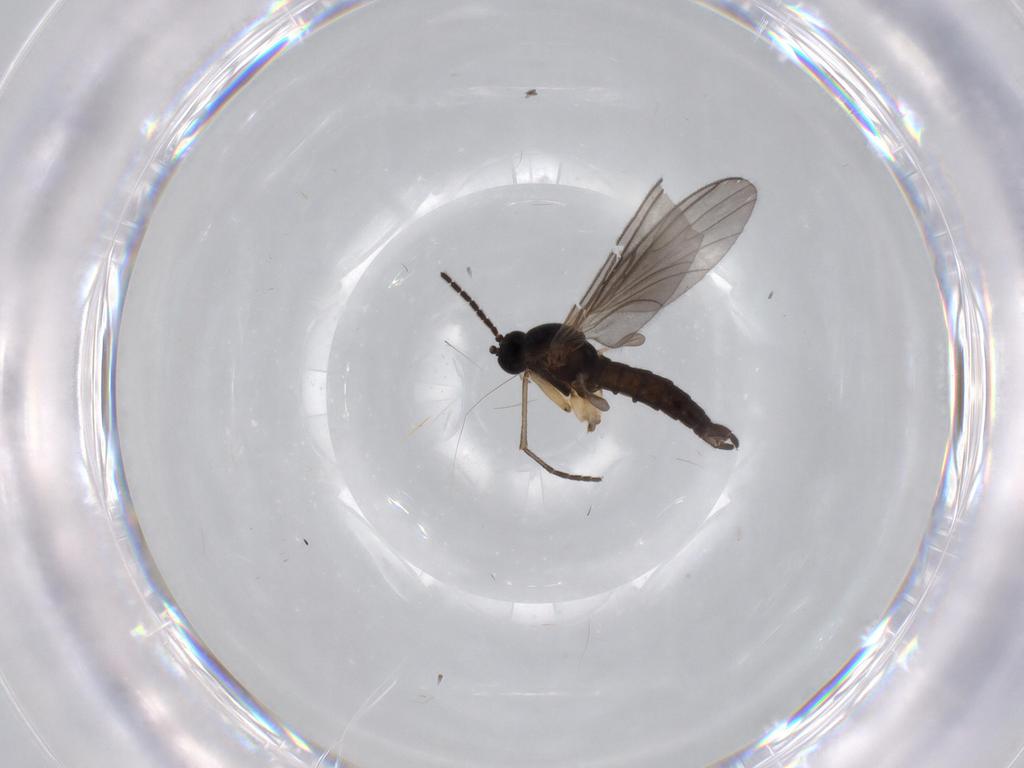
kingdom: Animalia
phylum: Arthropoda
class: Insecta
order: Diptera
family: Sciaridae
